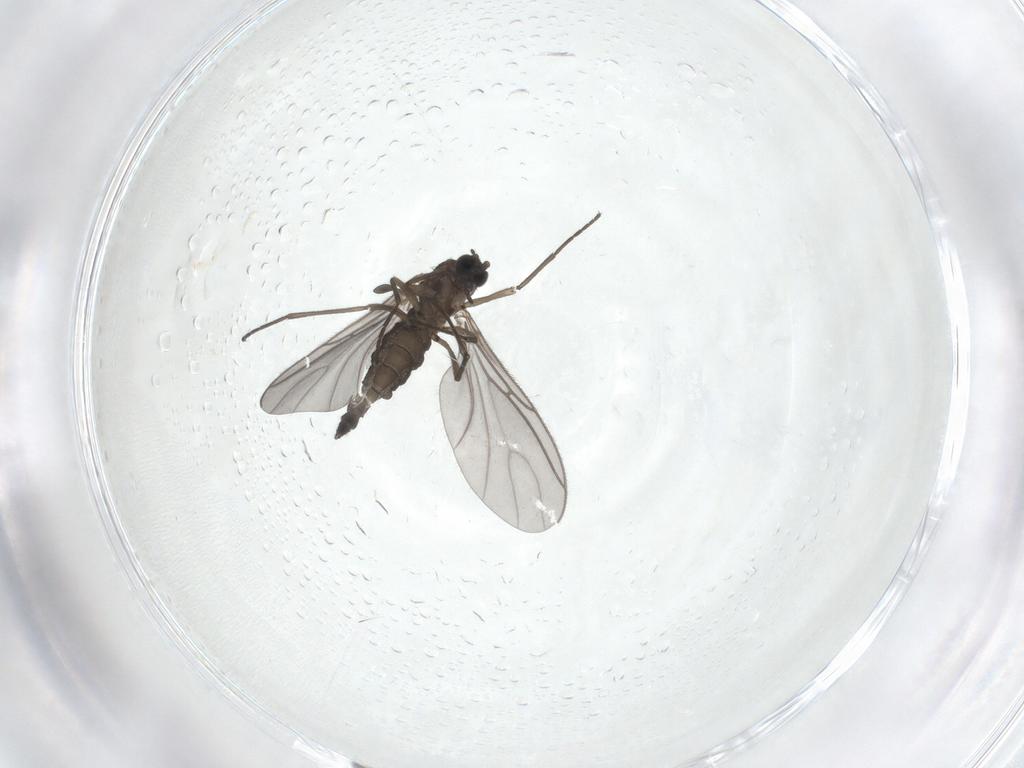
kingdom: Animalia
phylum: Arthropoda
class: Insecta
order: Diptera
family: Sciaridae
